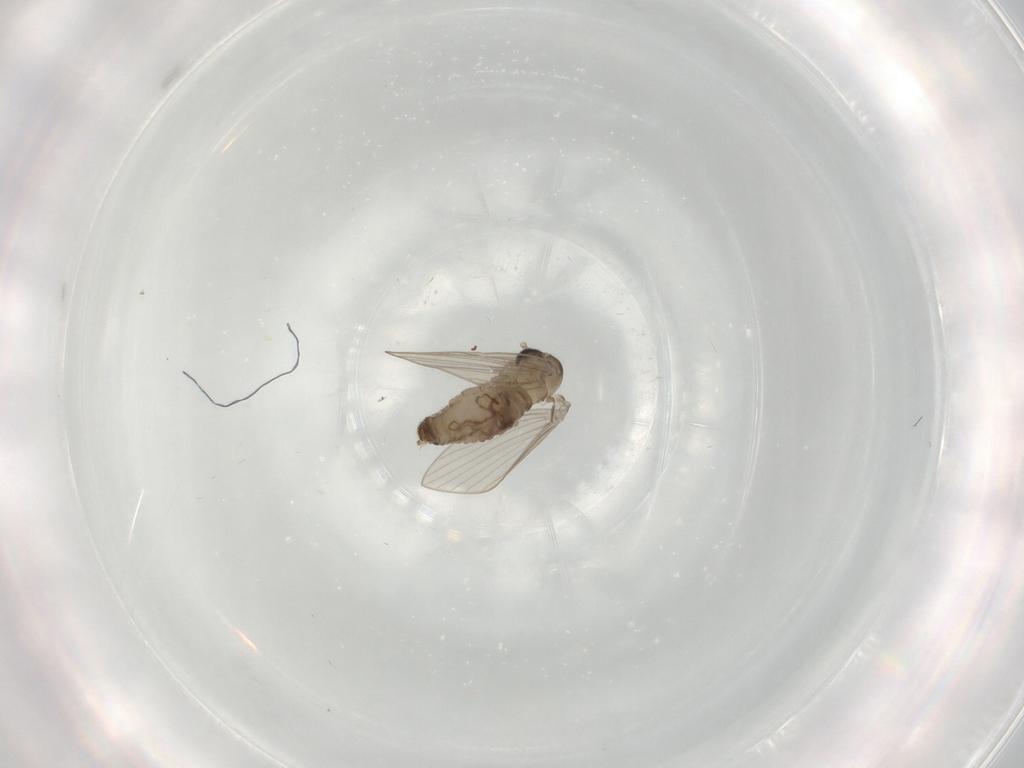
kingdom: Animalia
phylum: Arthropoda
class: Insecta
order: Diptera
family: Psychodidae
